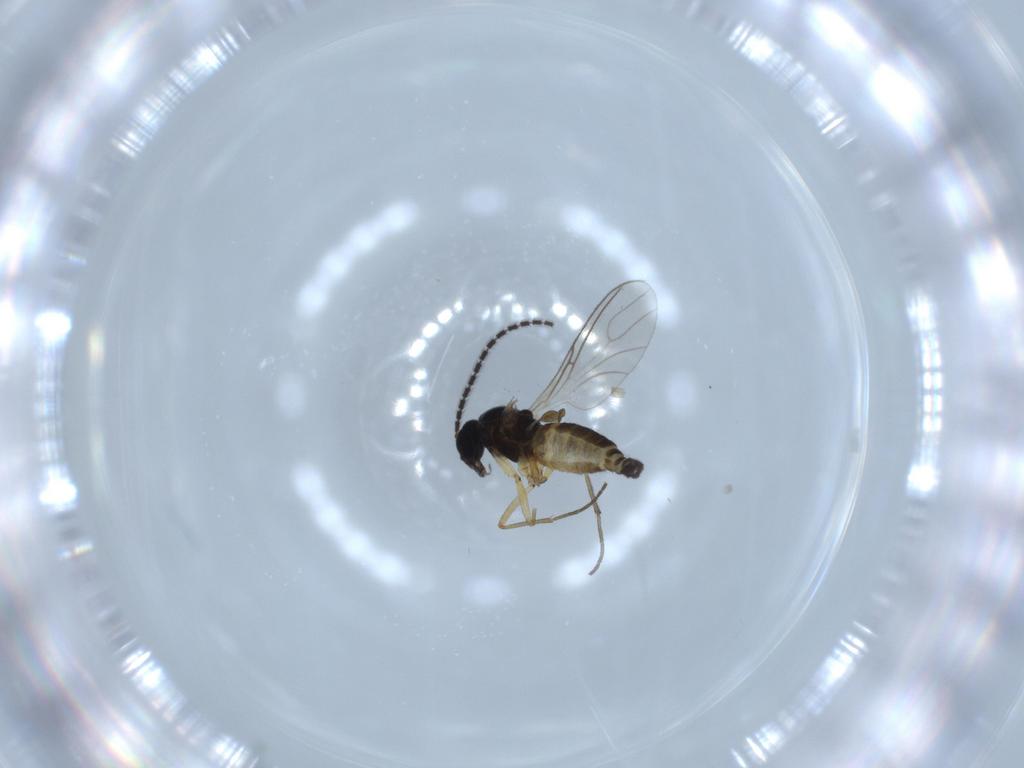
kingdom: Animalia
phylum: Arthropoda
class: Insecta
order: Diptera
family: Sciaridae
